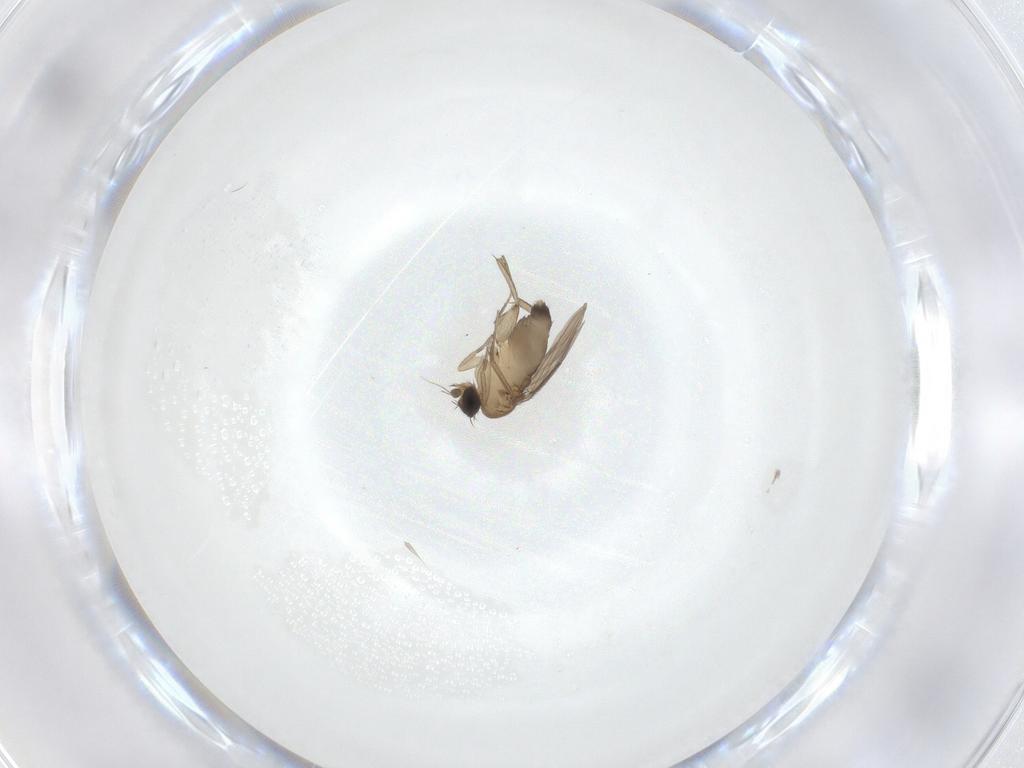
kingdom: Animalia
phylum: Arthropoda
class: Insecta
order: Diptera
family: Phoridae
